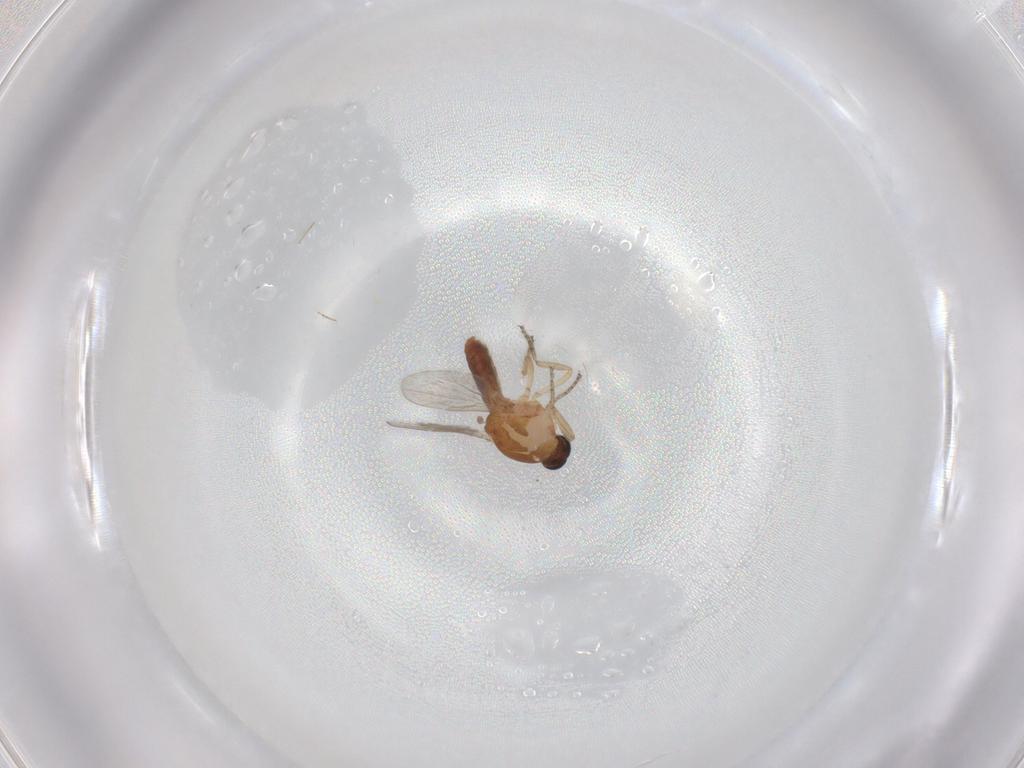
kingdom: Animalia
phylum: Arthropoda
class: Insecta
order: Diptera
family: Ceratopogonidae
